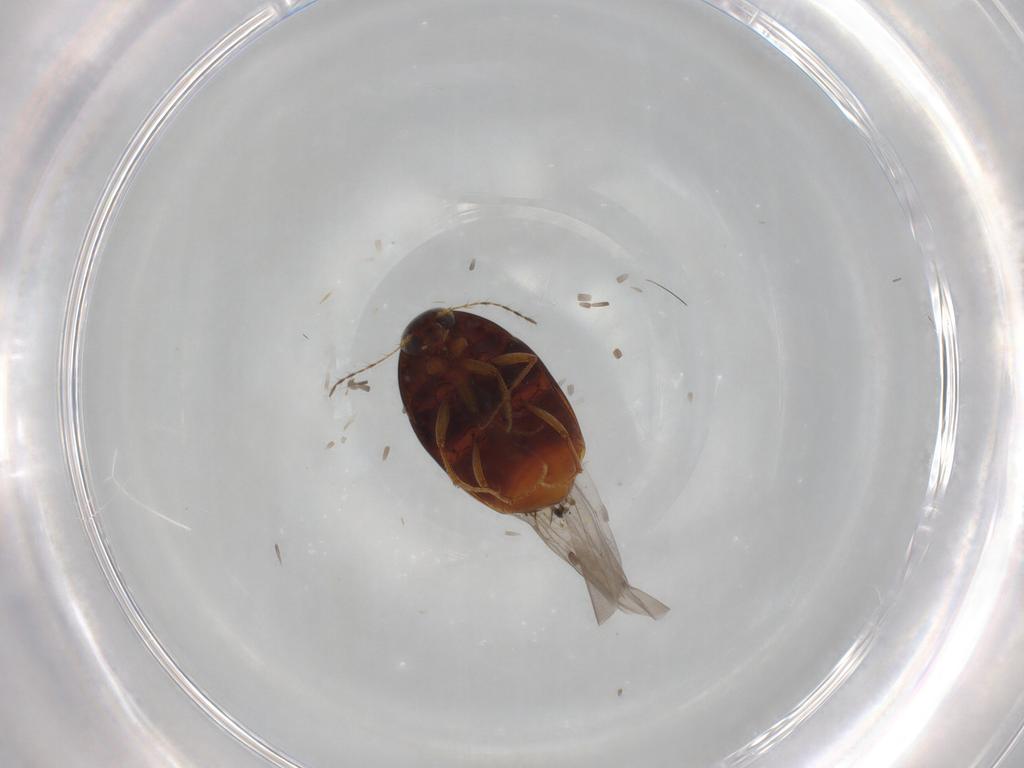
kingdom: Animalia
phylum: Arthropoda
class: Insecta
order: Coleoptera
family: Staphylinidae
